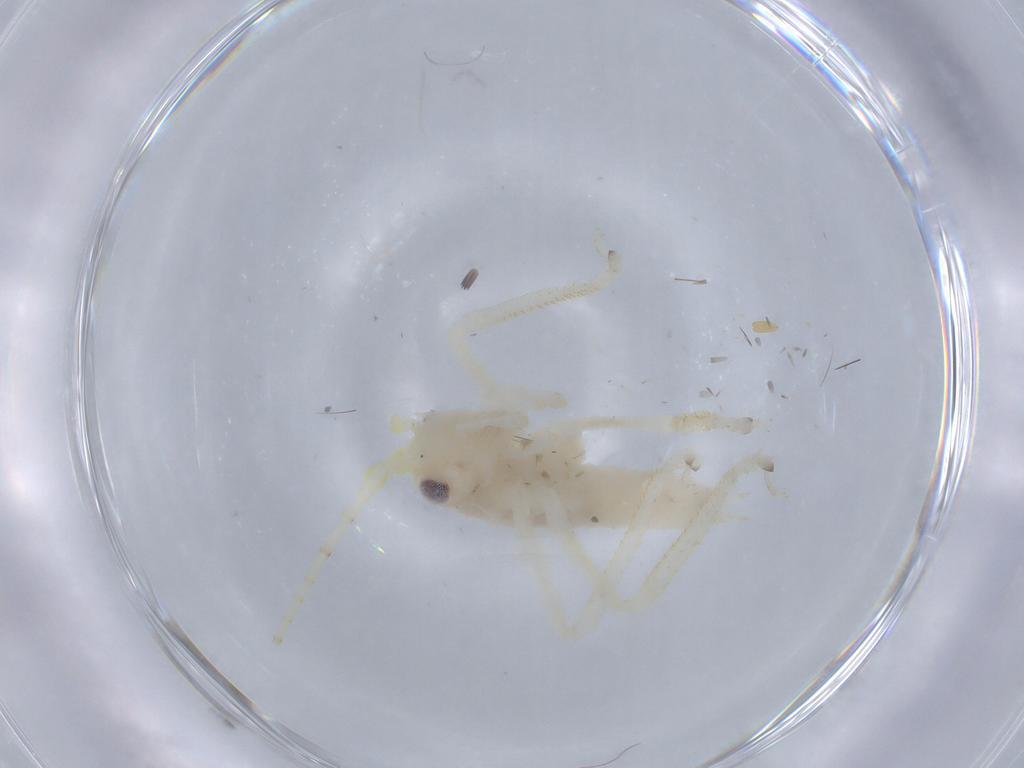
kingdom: Animalia
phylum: Arthropoda
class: Insecta
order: Orthoptera
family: Tettigoniidae
